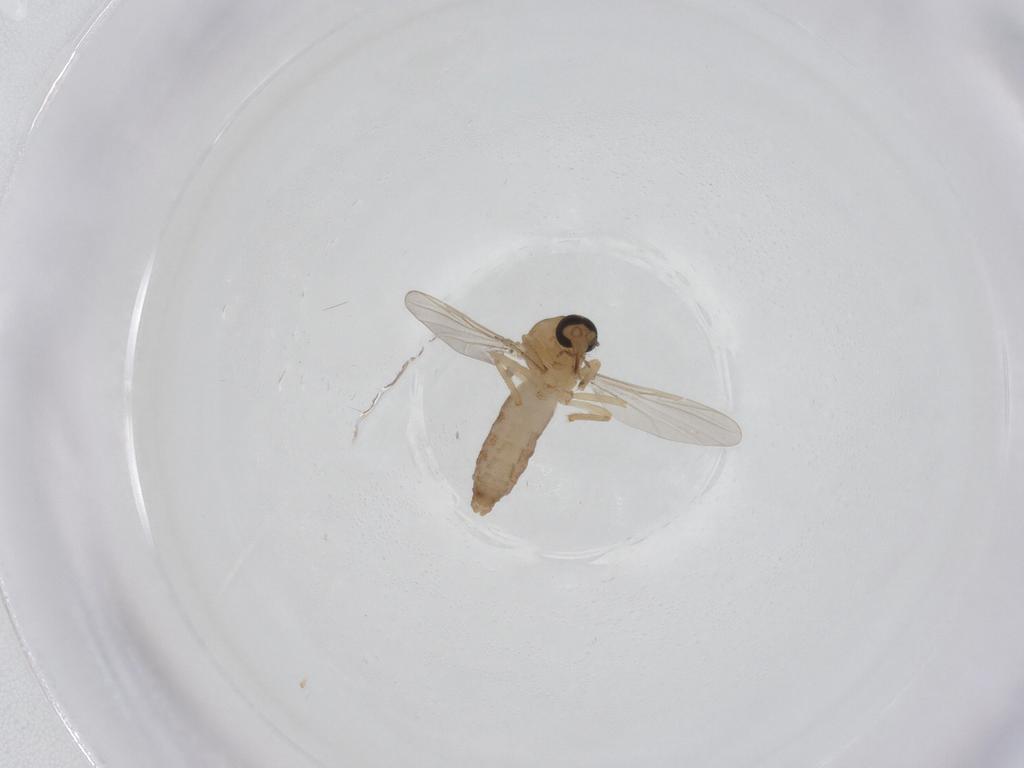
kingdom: Animalia
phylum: Arthropoda
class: Insecta
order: Diptera
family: Ceratopogonidae
